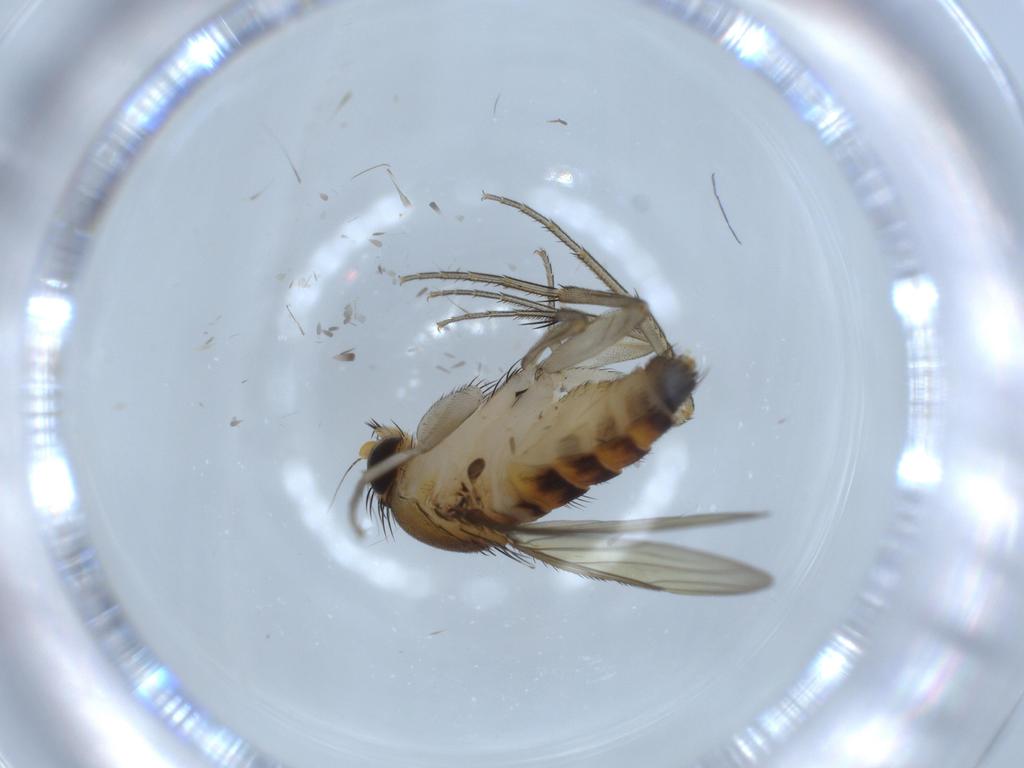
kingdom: Animalia
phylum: Arthropoda
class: Insecta
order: Diptera
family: Phoridae
